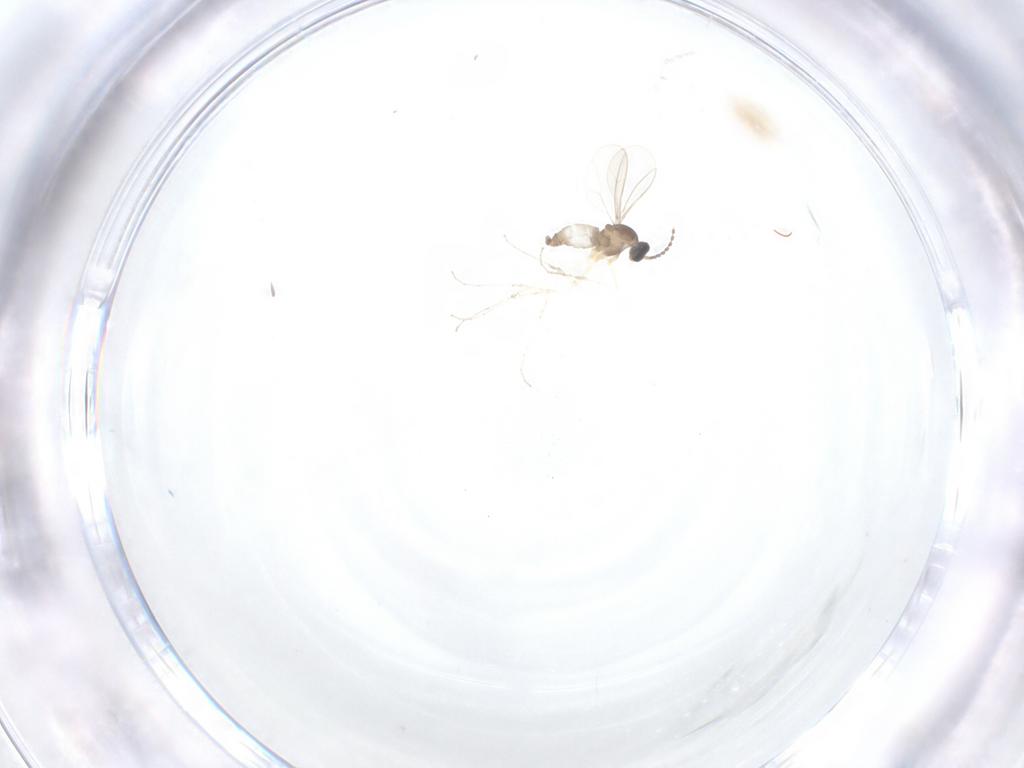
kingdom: Animalia
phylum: Arthropoda
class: Insecta
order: Diptera
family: Cecidomyiidae
